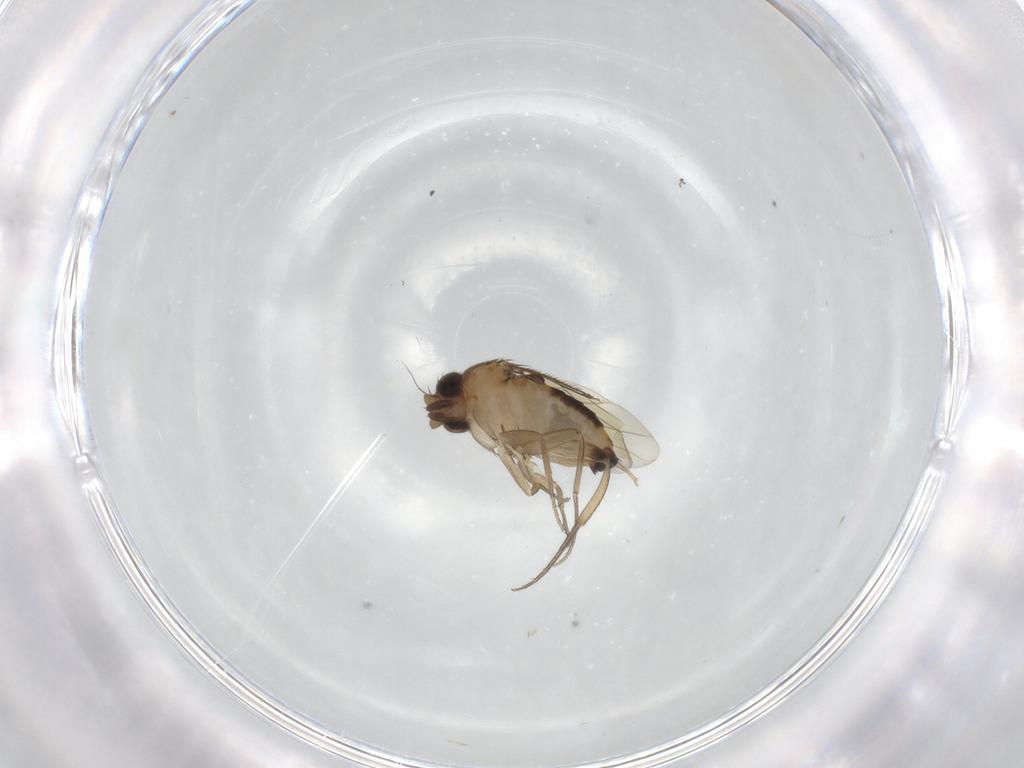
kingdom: Animalia
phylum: Arthropoda
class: Insecta
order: Diptera
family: Phoridae
